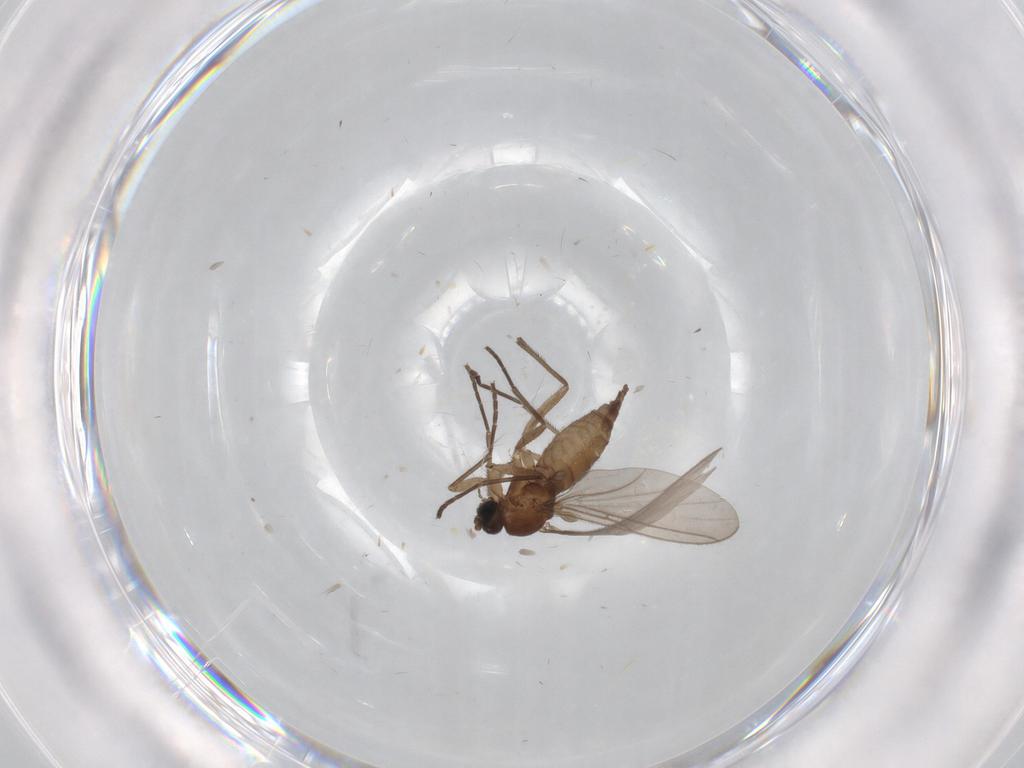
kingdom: Animalia
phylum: Arthropoda
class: Insecta
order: Diptera
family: Sciaridae
